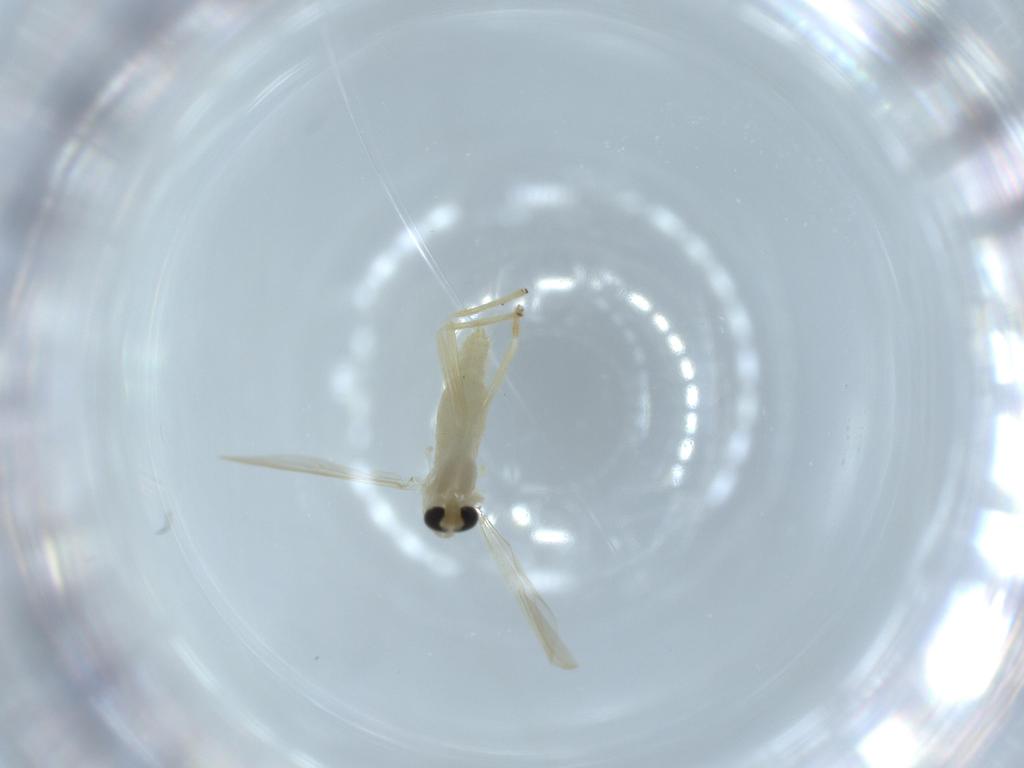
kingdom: Animalia
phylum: Arthropoda
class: Insecta
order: Diptera
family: Chironomidae
